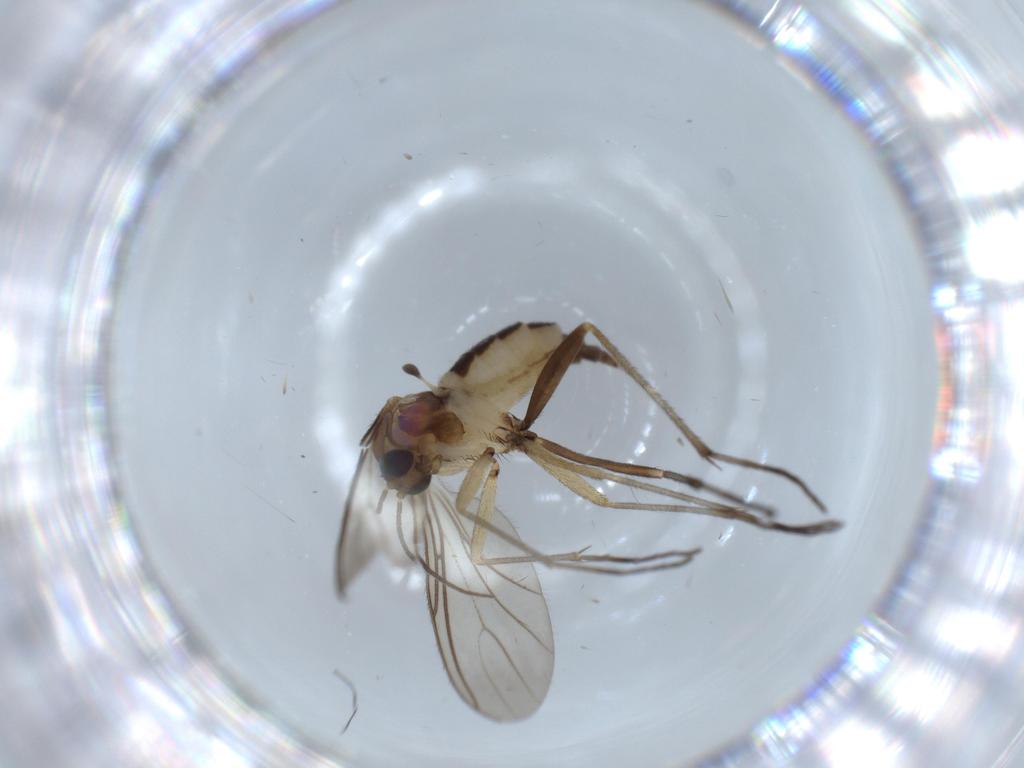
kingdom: Animalia
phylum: Arthropoda
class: Insecta
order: Diptera
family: Sciaridae
